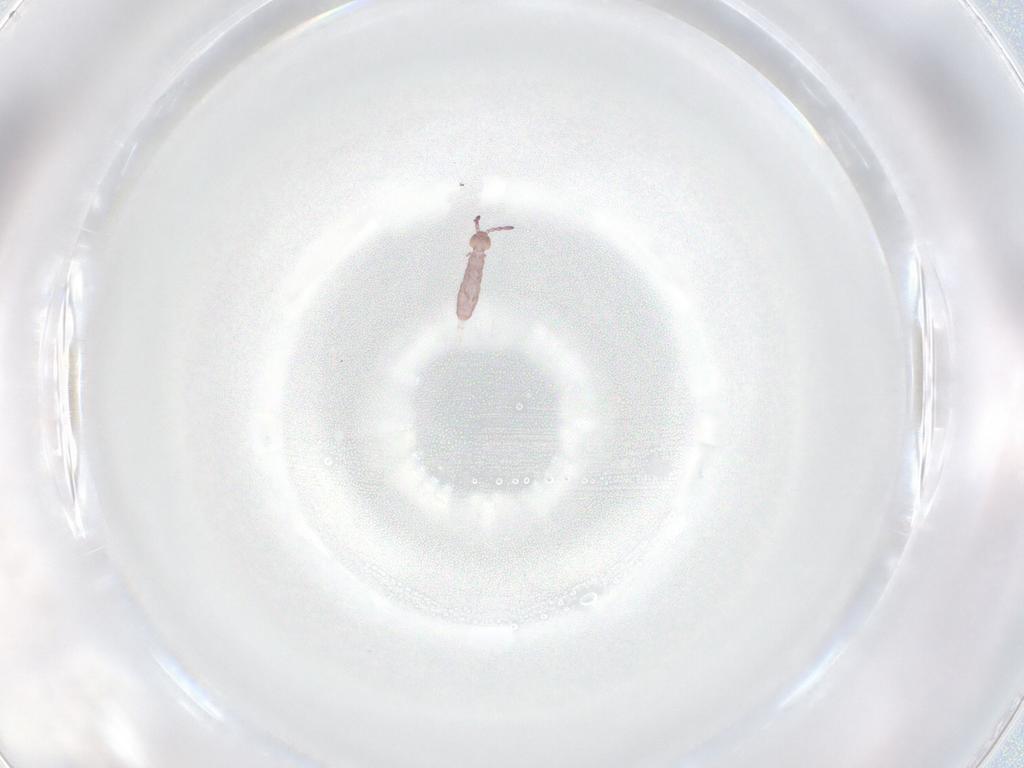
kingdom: Animalia
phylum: Arthropoda
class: Collembola
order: Entomobryomorpha
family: Isotomidae
